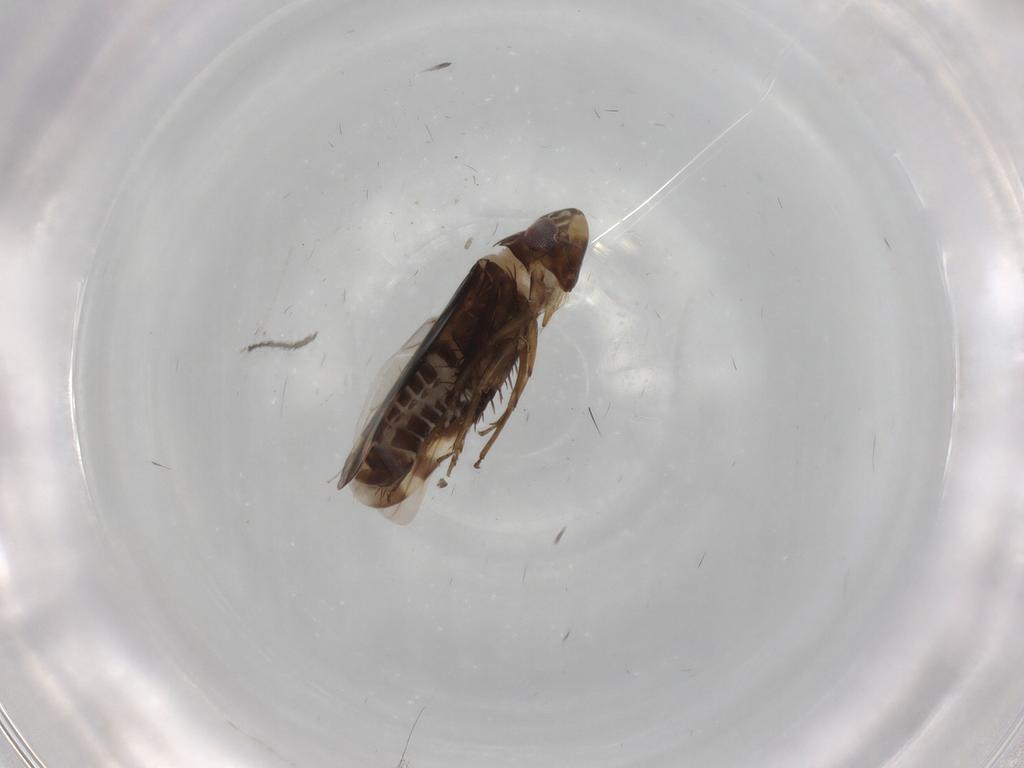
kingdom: Animalia
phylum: Arthropoda
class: Insecta
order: Hemiptera
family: Cicadellidae
